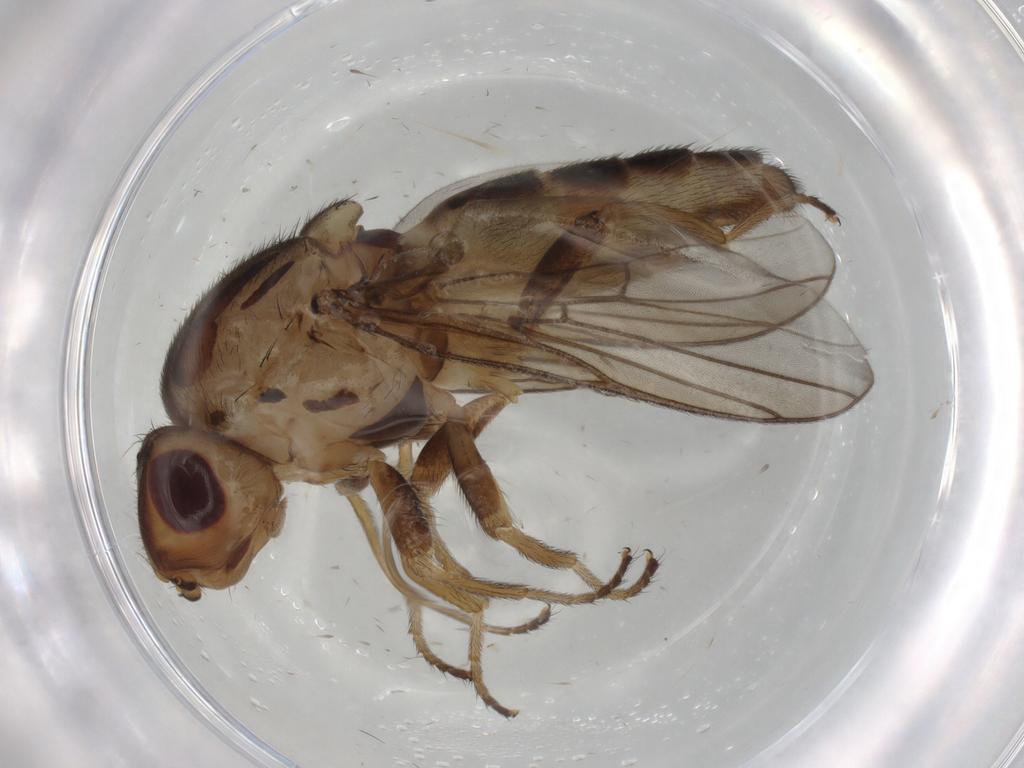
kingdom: Animalia
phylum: Arthropoda
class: Insecta
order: Diptera
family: Chloropidae
